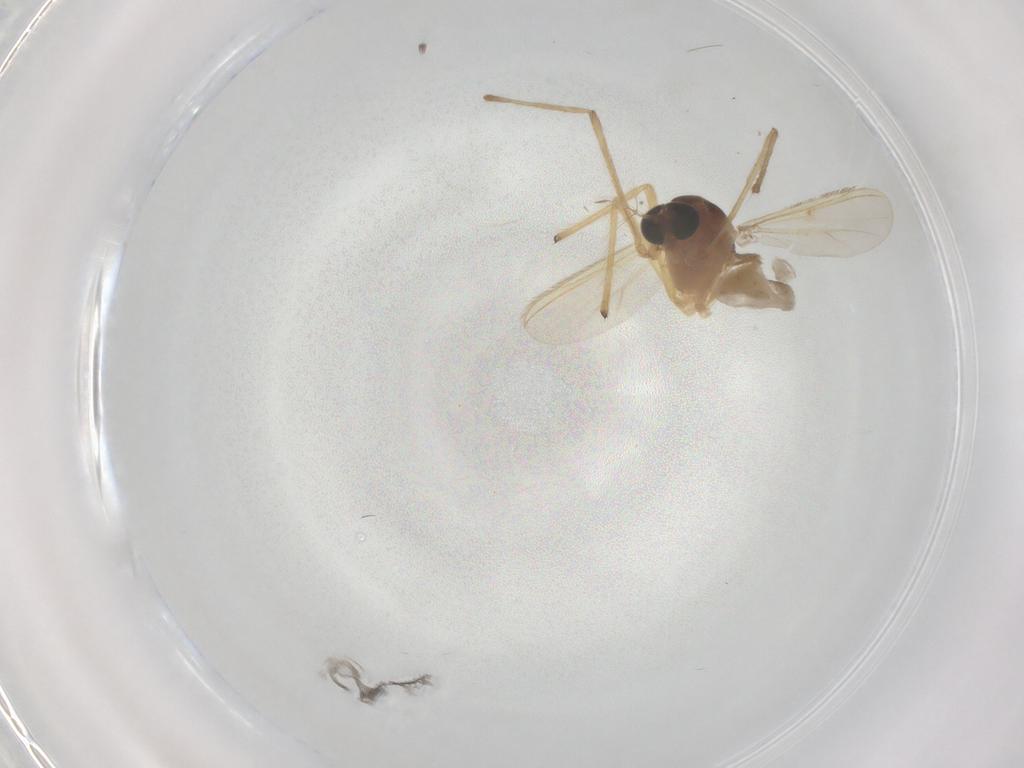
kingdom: Animalia
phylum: Arthropoda
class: Insecta
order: Diptera
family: Chironomidae
